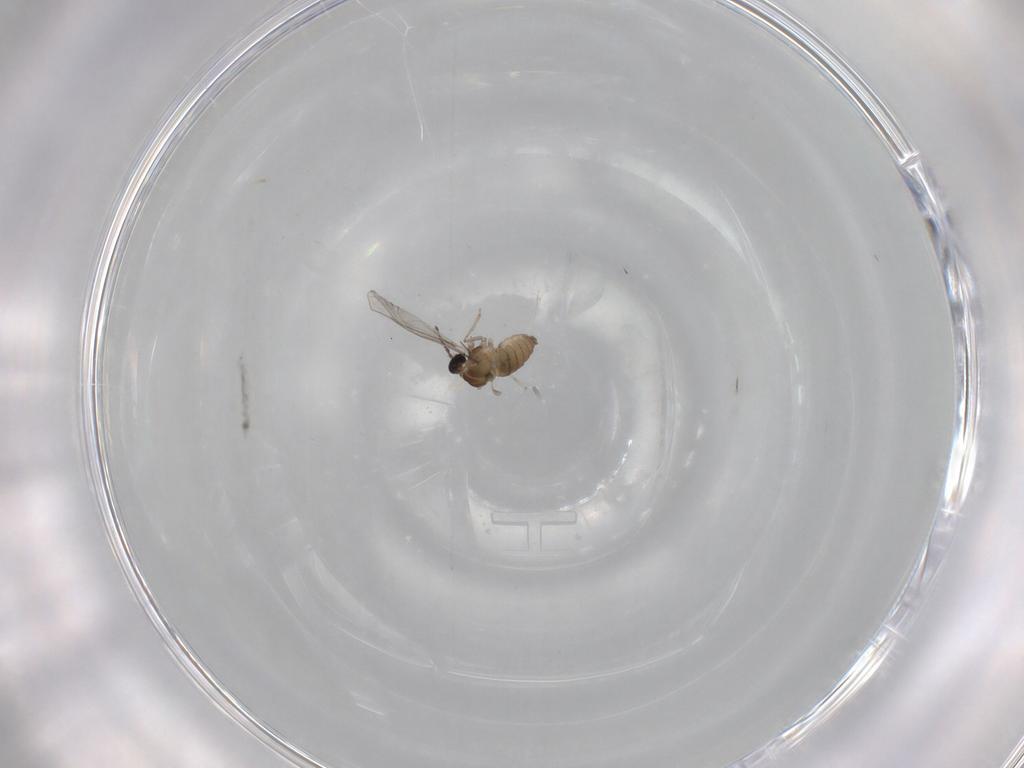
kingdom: Animalia
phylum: Arthropoda
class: Insecta
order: Diptera
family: Cecidomyiidae
